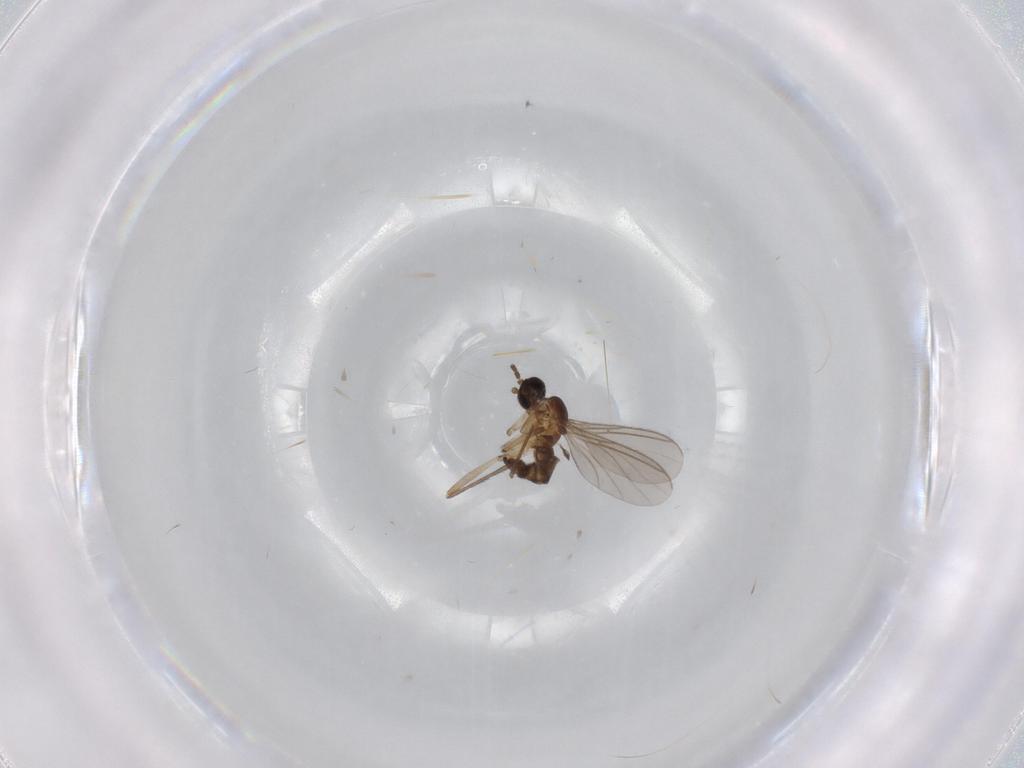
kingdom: Animalia
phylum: Arthropoda
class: Insecta
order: Diptera
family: Sciaridae
